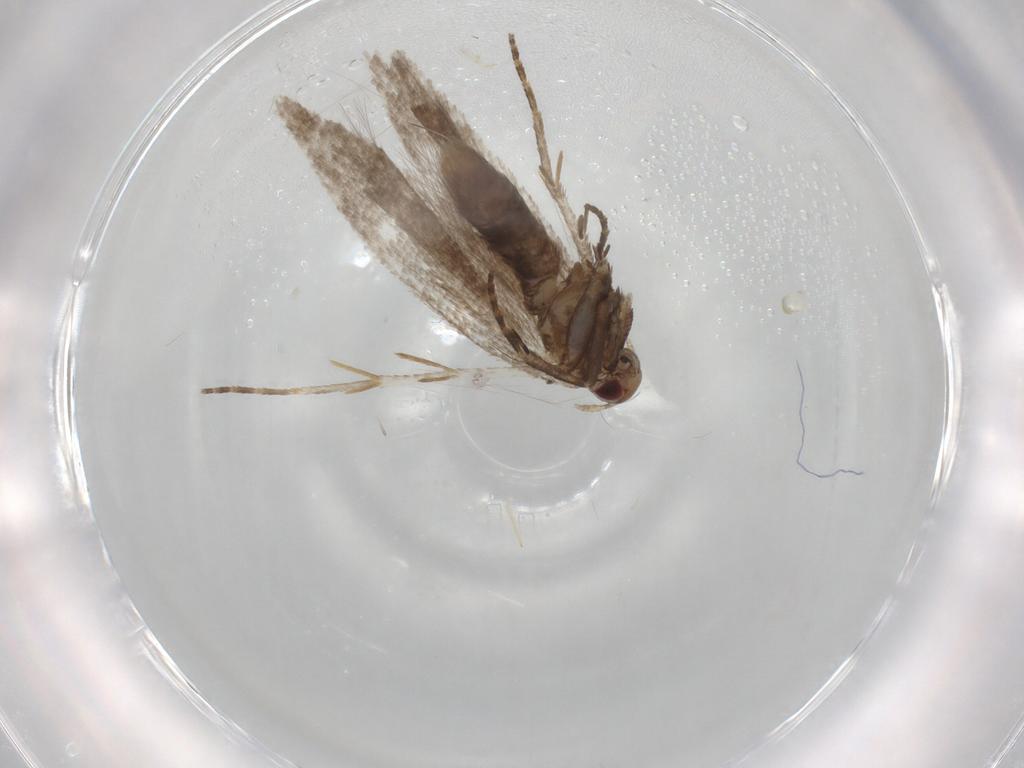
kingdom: Animalia
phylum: Arthropoda
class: Insecta
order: Lepidoptera
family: Gelechiidae
